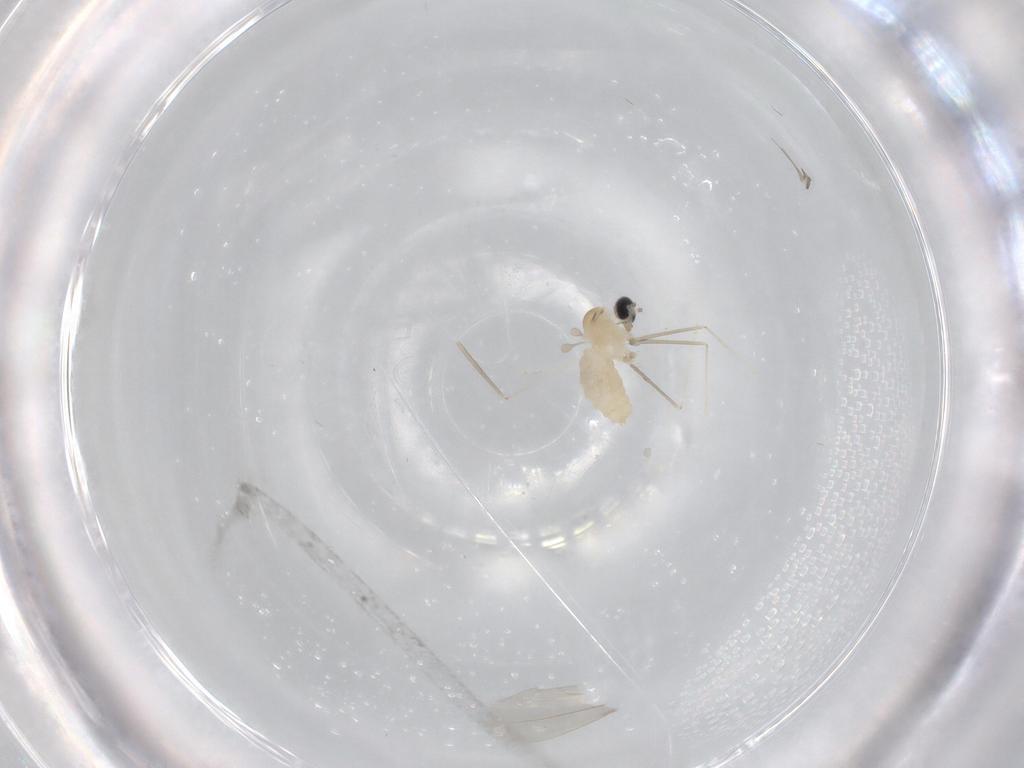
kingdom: Animalia
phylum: Arthropoda
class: Insecta
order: Diptera
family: Cecidomyiidae
